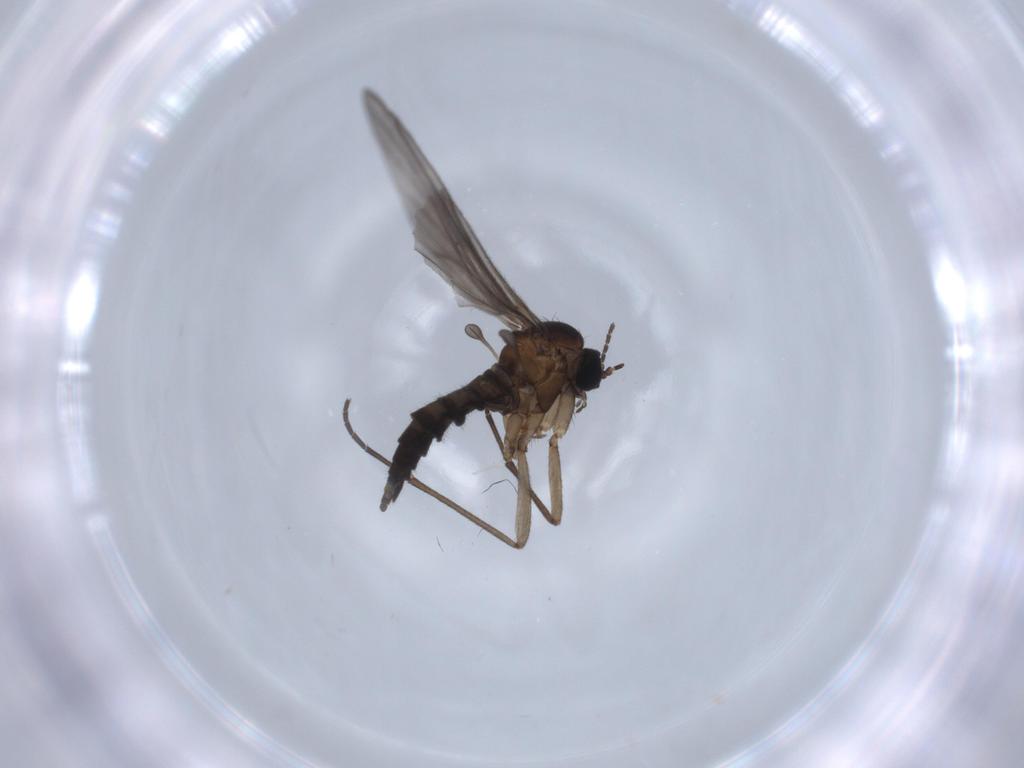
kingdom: Animalia
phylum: Arthropoda
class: Insecta
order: Diptera
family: Sciaridae
